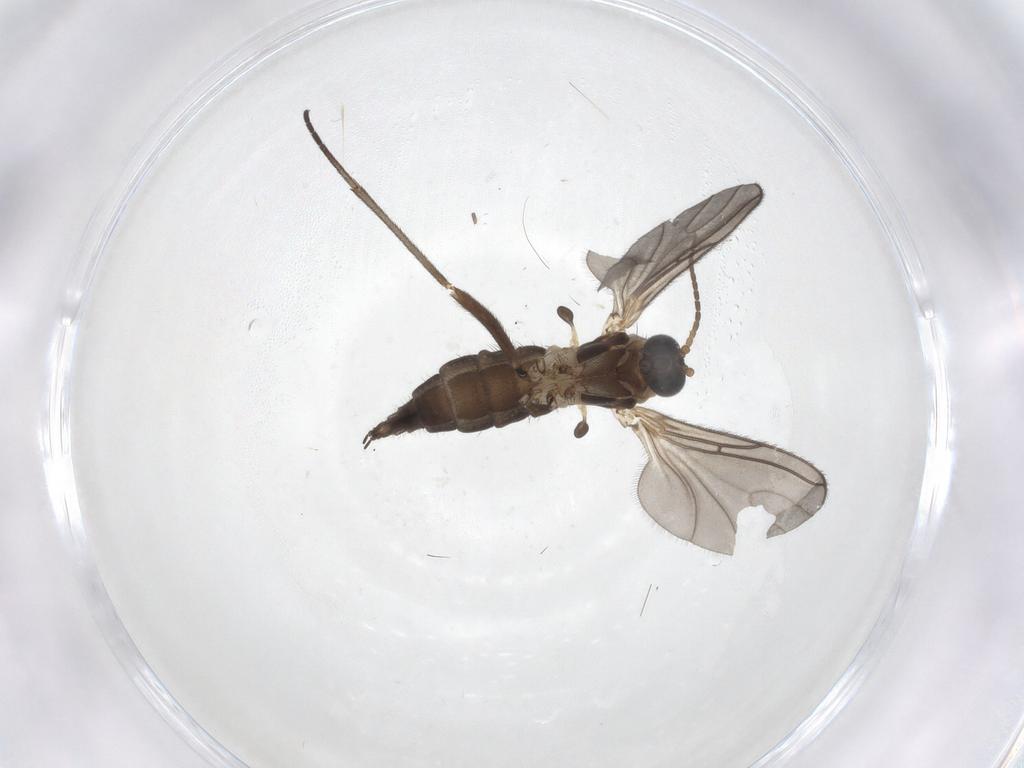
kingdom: Animalia
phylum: Arthropoda
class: Insecta
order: Diptera
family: Sciaridae
